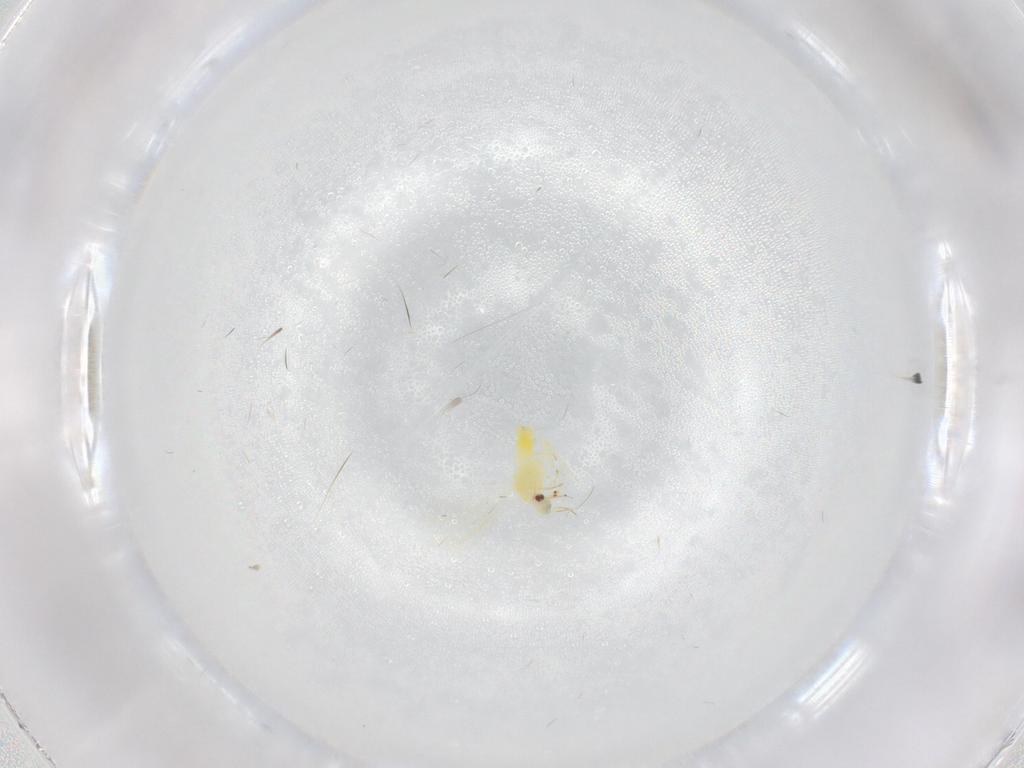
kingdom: Animalia
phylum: Arthropoda
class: Insecta
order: Hemiptera
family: Aleyrodidae
